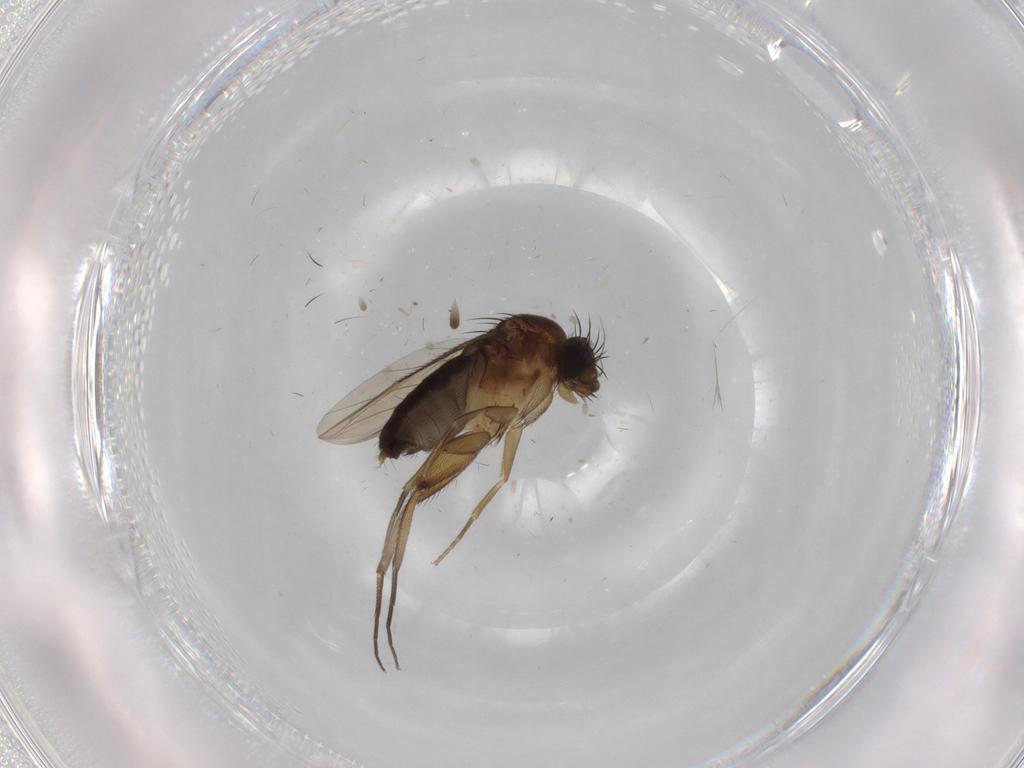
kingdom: Animalia
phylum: Arthropoda
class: Insecta
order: Diptera
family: Phoridae
